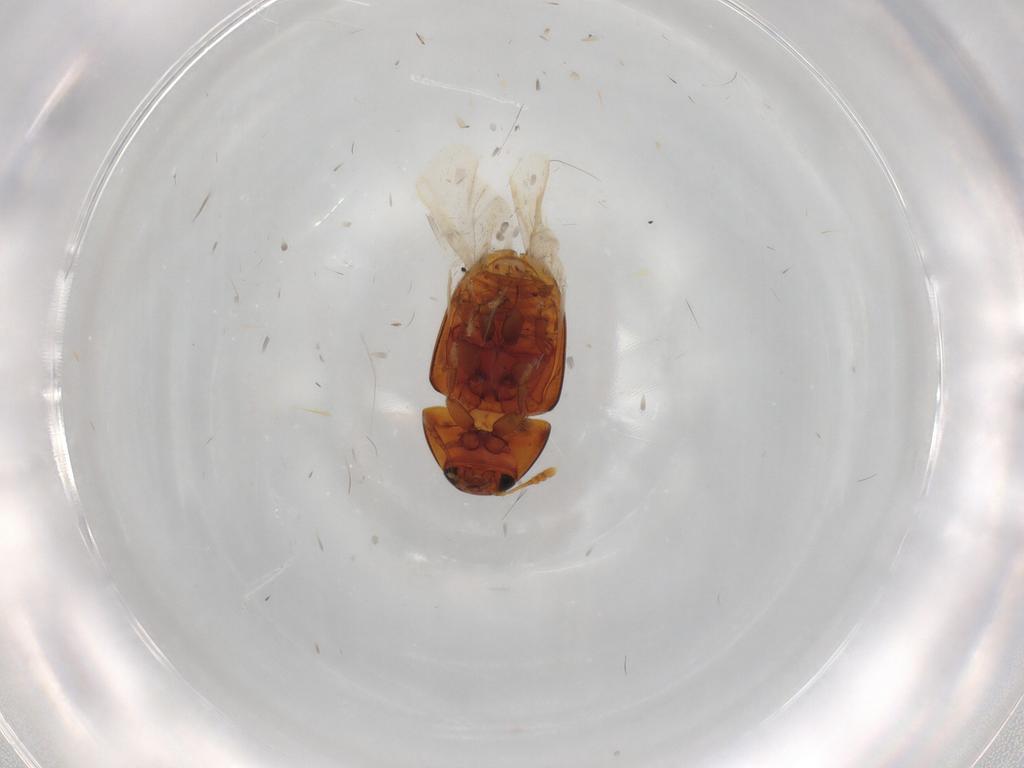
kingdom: Animalia
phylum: Arthropoda
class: Insecta
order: Coleoptera
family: Phalacridae
